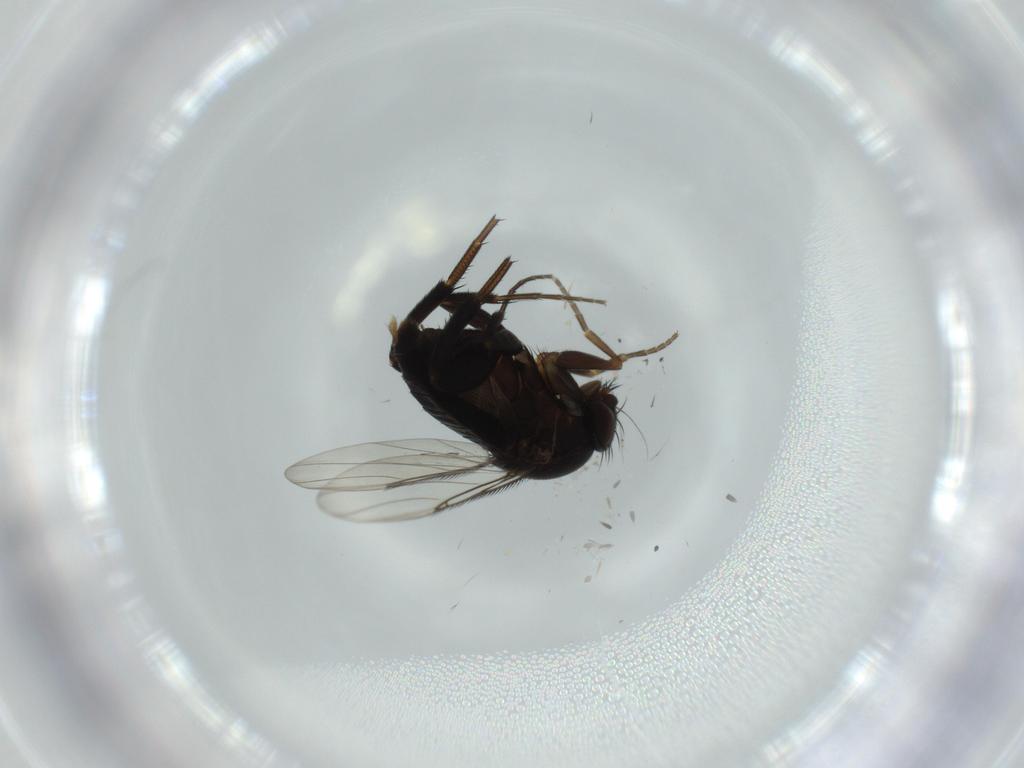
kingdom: Animalia
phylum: Arthropoda
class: Insecta
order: Diptera
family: Phoridae
